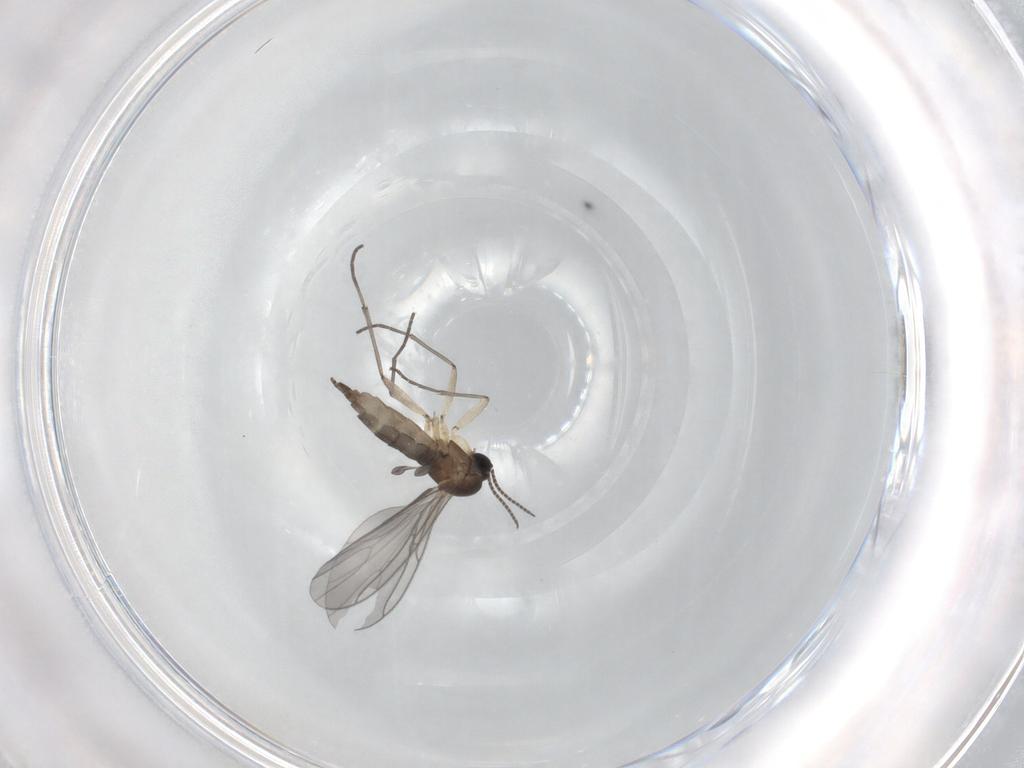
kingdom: Animalia
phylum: Arthropoda
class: Insecta
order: Diptera
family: Sciaridae
